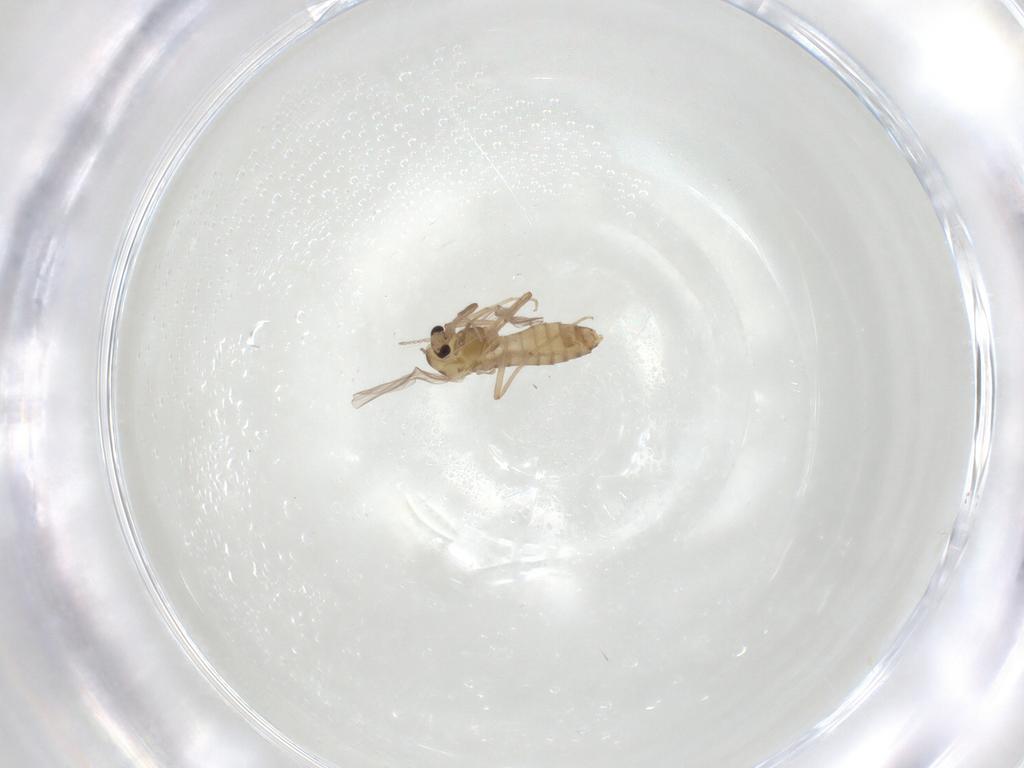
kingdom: Animalia
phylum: Arthropoda
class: Insecta
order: Diptera
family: Chironomidae
